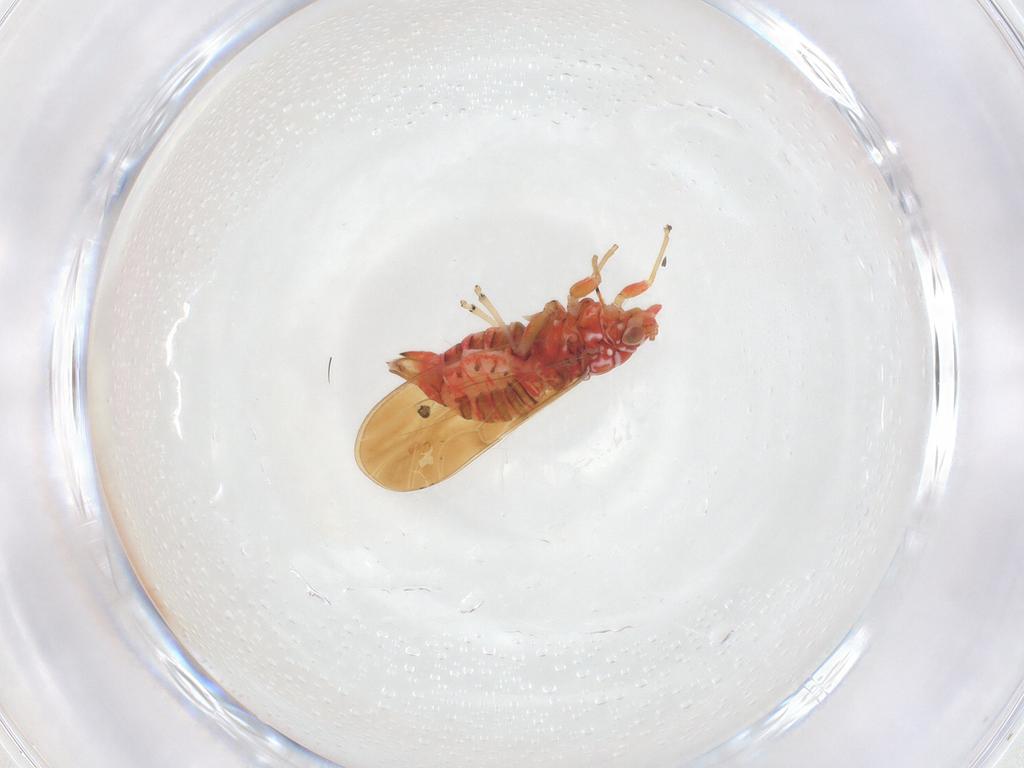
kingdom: Animalia
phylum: Arthropoda
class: Insecta
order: Hemiptera
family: Psyllidae
